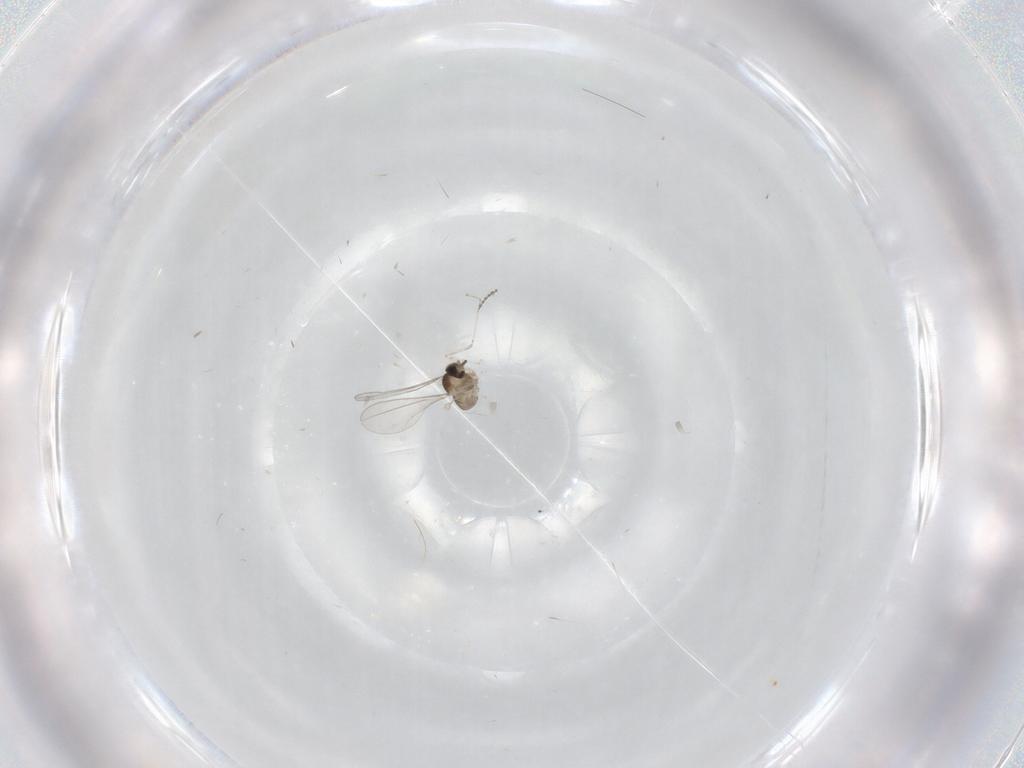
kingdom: Animalia
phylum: Arthropoda
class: Insecta
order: Diptera
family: Cecidomyiidae
